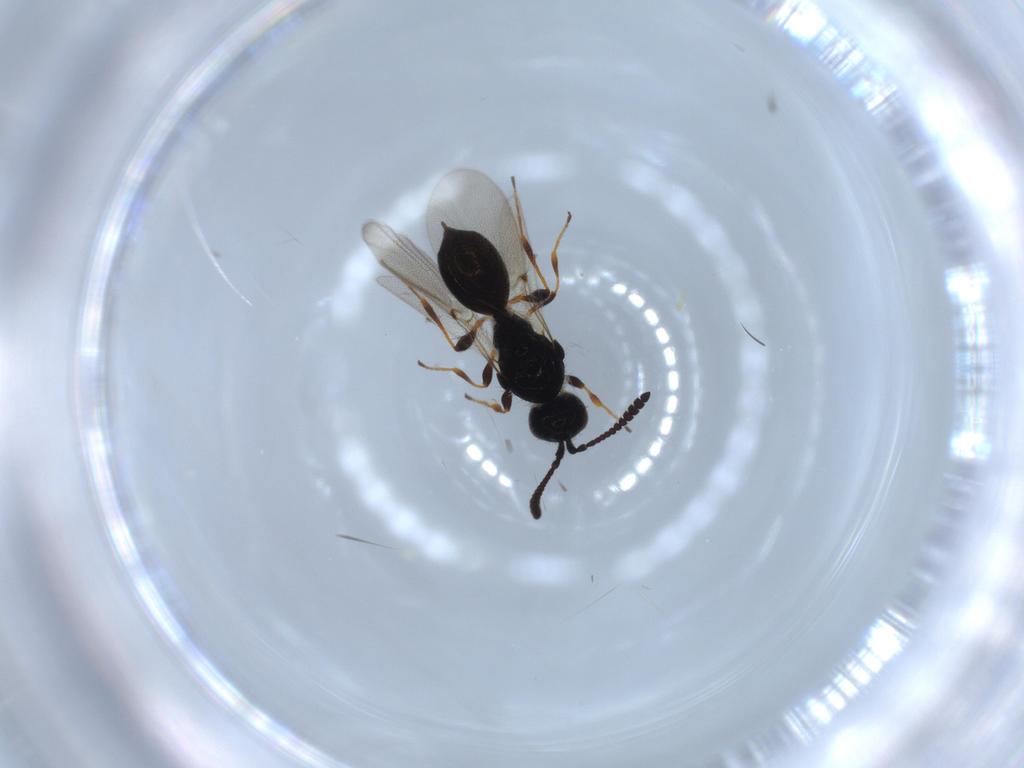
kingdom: Animalia
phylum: Arthropoda
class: Insecta
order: Hymenoptera
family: Diapriidae
